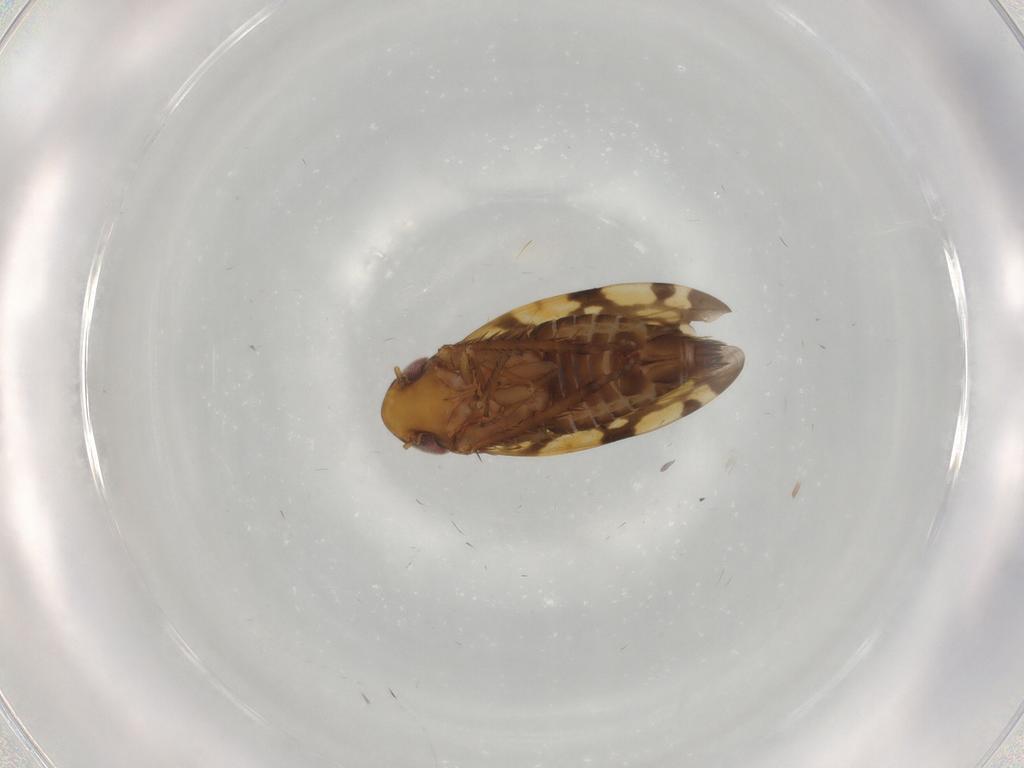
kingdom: Animalia
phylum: Arthropoda
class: Insecta
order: Hemiptera
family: Cicadellidae
